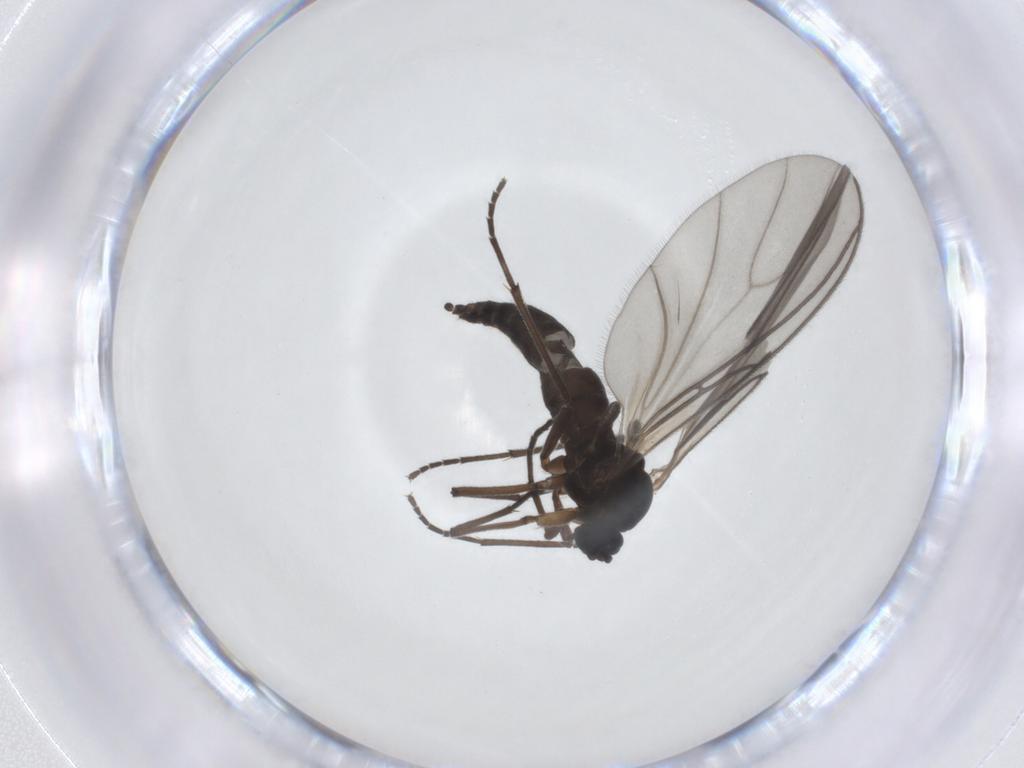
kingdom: Animalia
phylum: Arthropoda
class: Insecta
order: Diptera
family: Sciaridae
